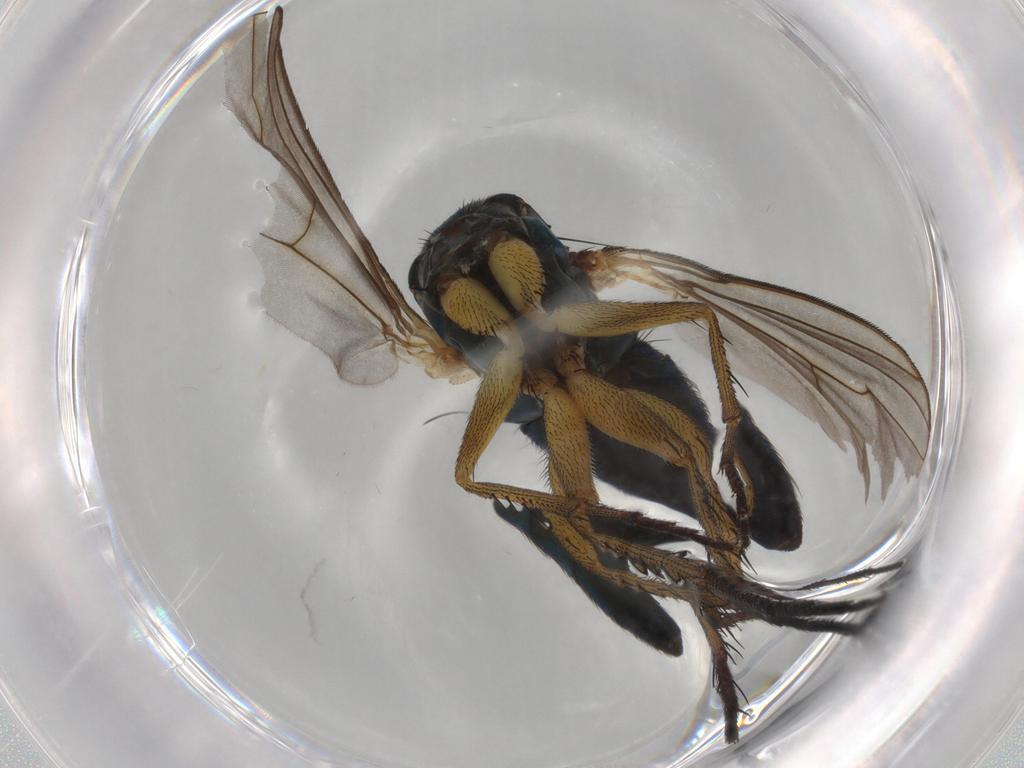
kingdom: Animalia
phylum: Arthropoda
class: Insecta
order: Diptera
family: Dolichopodidae
